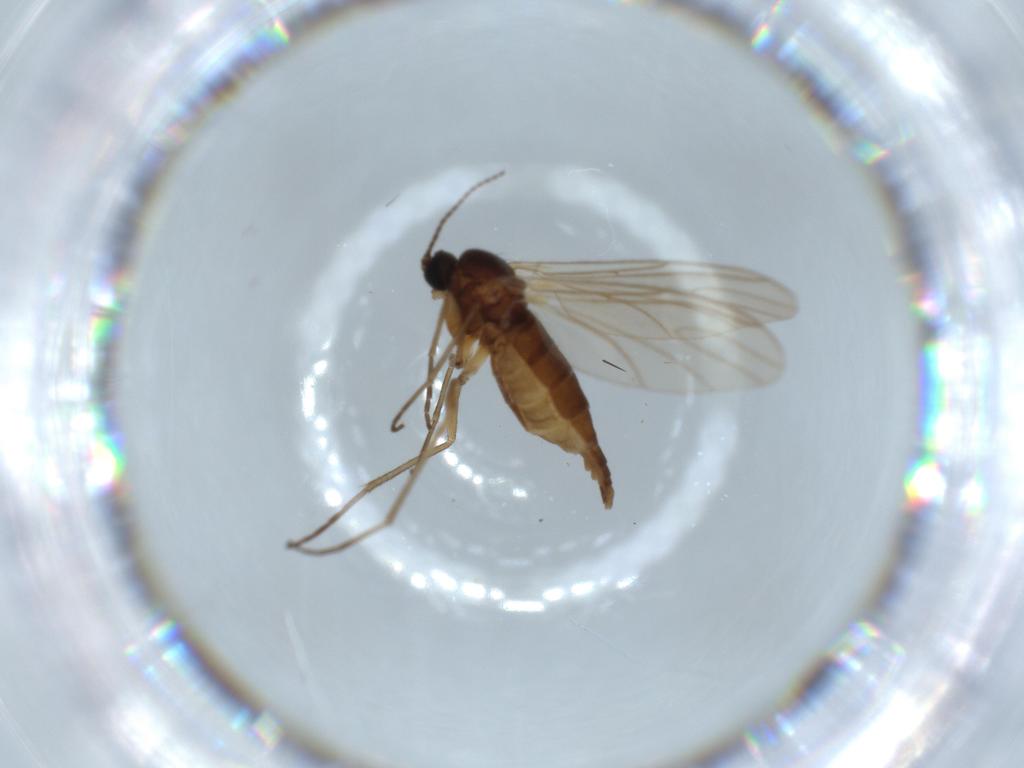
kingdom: Animalia
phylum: Arthropoda
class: Insecta
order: Diptera
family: Sciaridae
